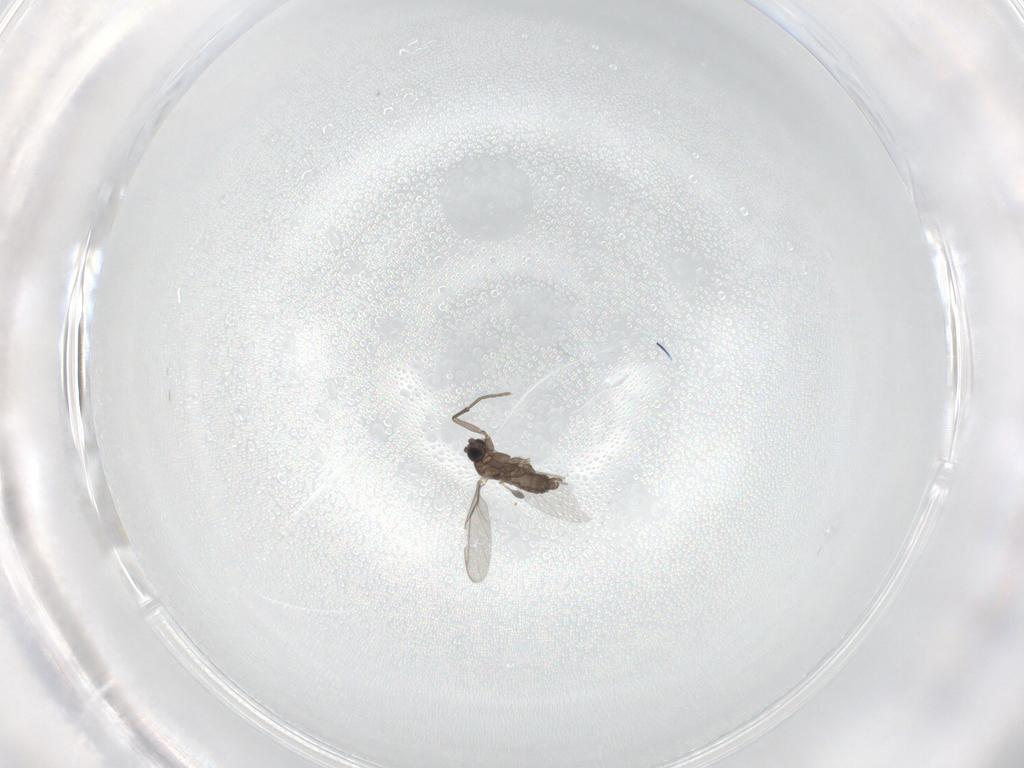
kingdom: Animalia
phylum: Arthropoda
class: Insecta
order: Diptera
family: Sciaridae
